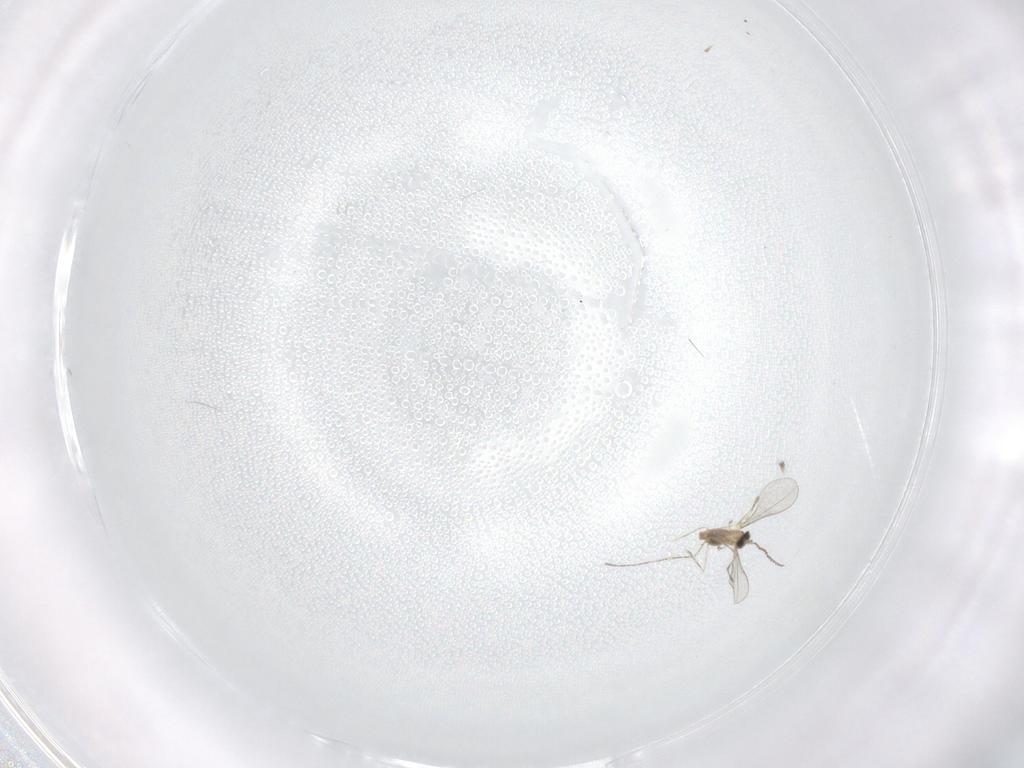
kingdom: Animalia
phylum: Arthropoda
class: Insecta
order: Diptera
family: Cecidomyiidae
